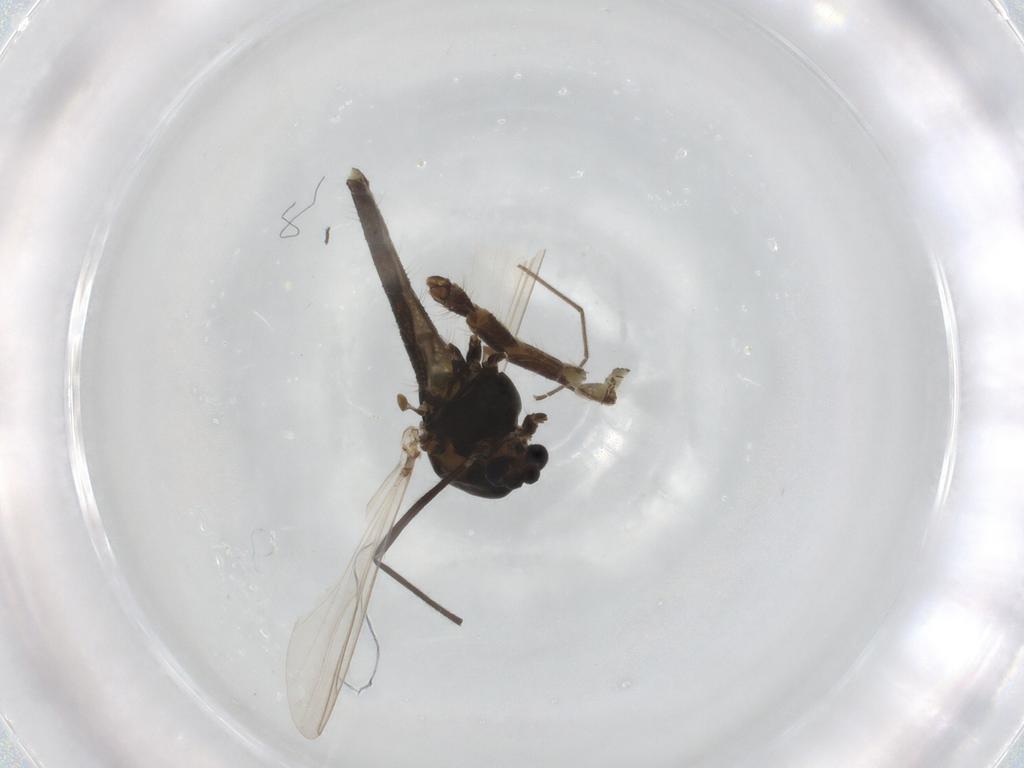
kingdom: Animalia
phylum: Arthropoda
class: Insecta
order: Diptera
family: Chironomidae
